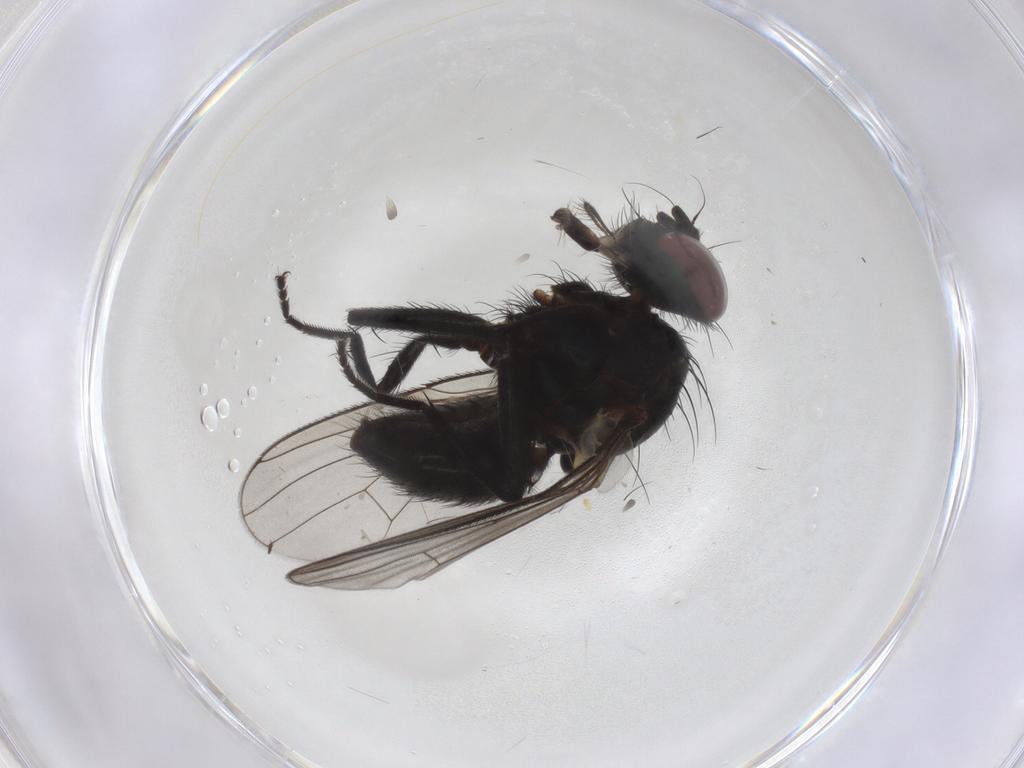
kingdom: Animalia
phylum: Arthropoda
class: Insecta
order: Diptera
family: Muscidae
